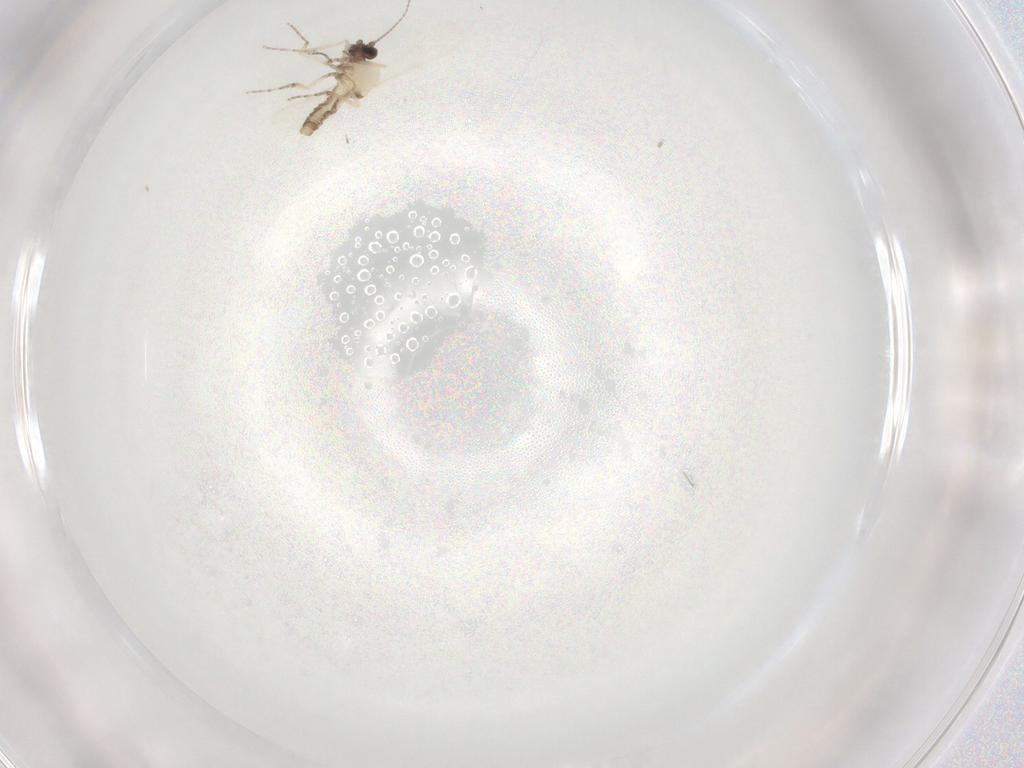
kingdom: Animalia
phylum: Arthropoda
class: Insecta
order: Diptera
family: Ceratopogonidae
